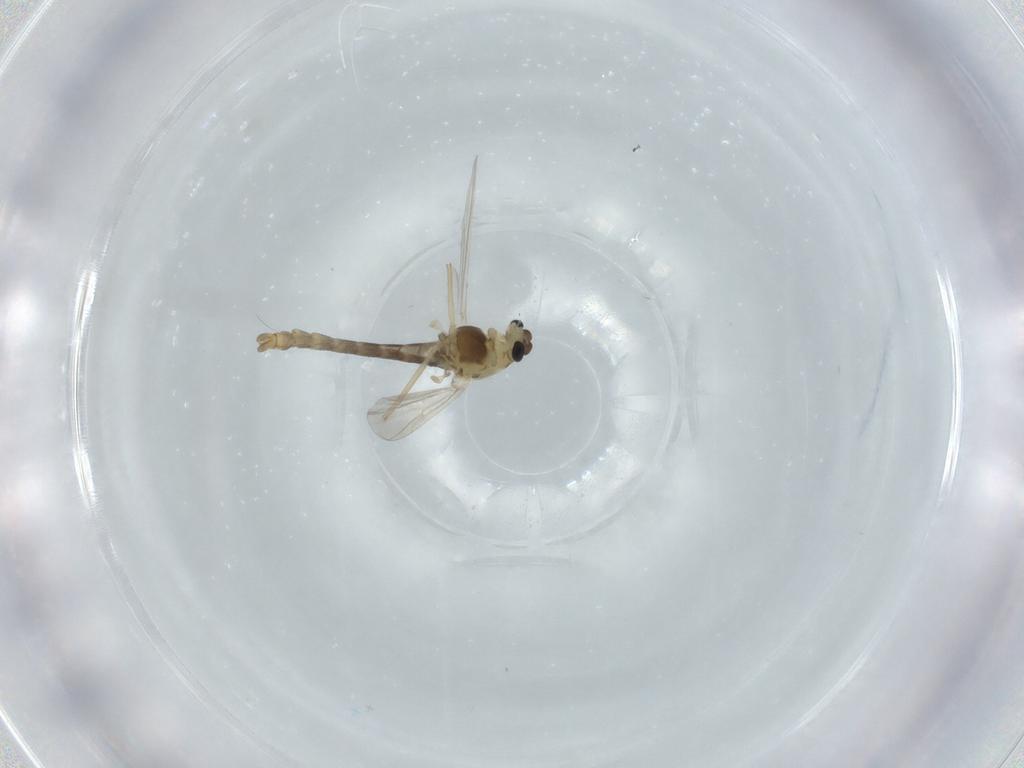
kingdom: Animalia
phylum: Arthropoda
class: Insecta
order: Diptera
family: Chironomidae
